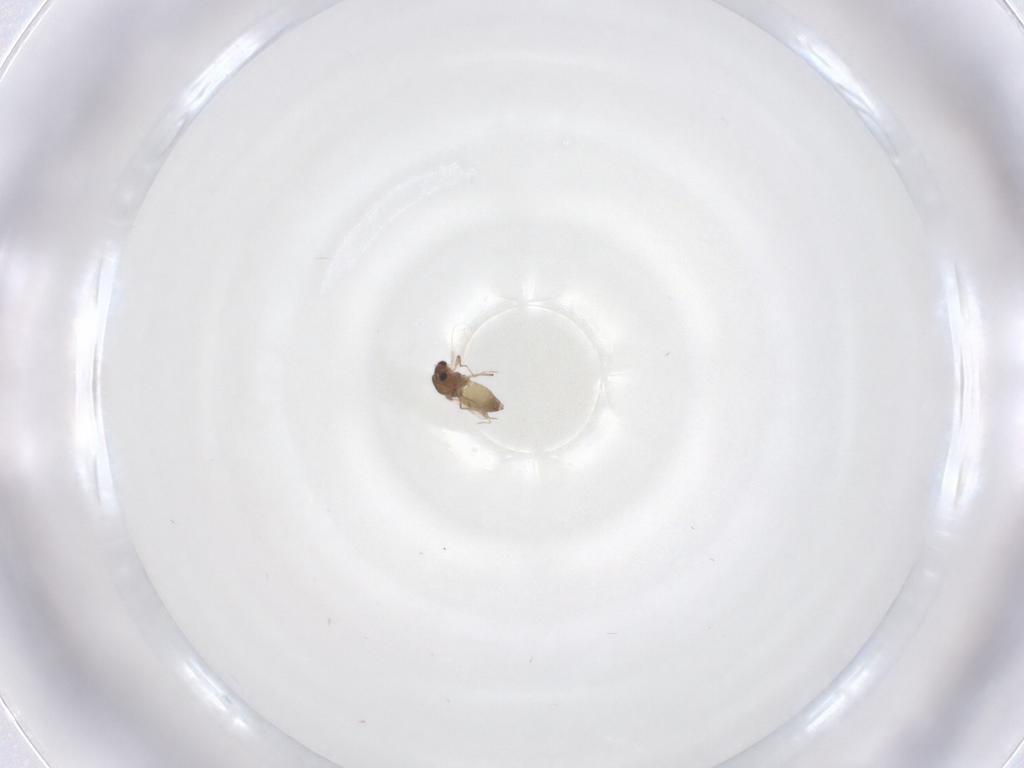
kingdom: Animalia
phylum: Arthropoda
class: Insecta
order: Diptera
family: Chironomidae
